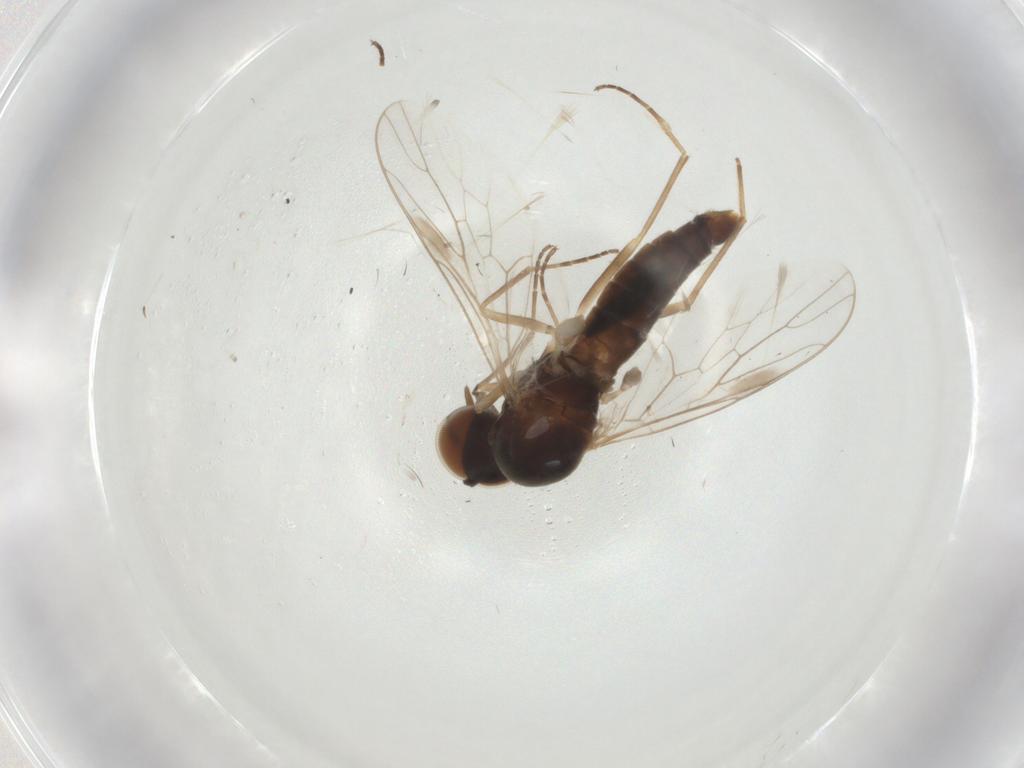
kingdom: Animalia
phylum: Arthropoda
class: Insecta
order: Diptera
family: Scenopinidae
